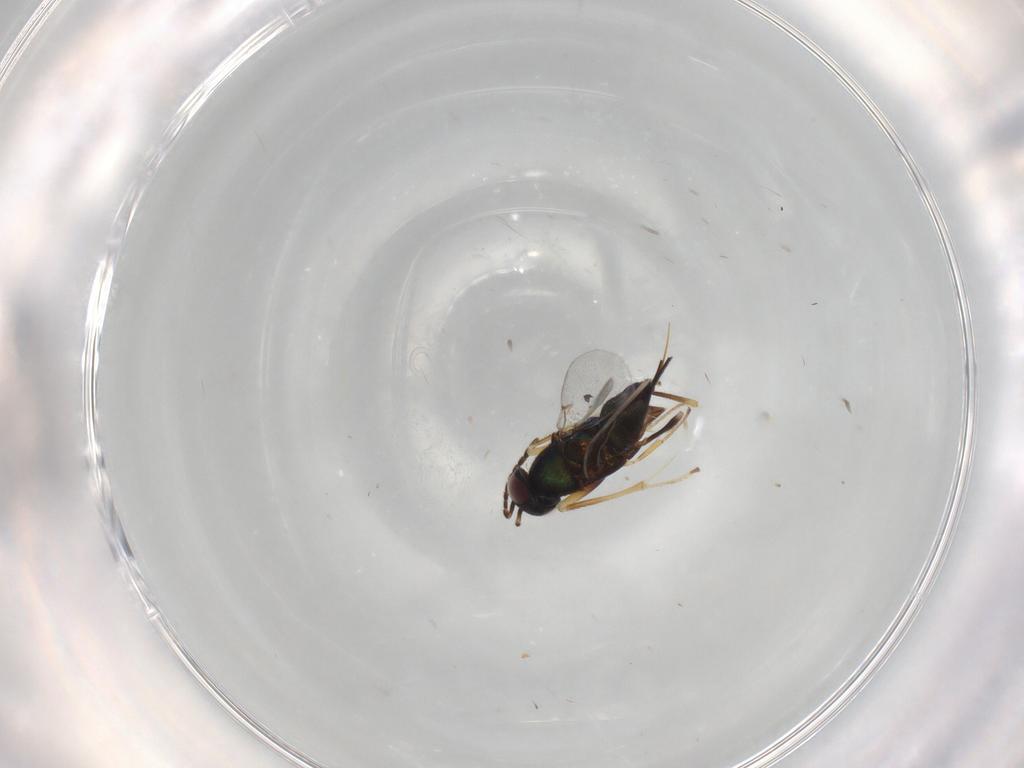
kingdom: Animalia
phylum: Arthropoda
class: Insecta
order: Hymenoptera
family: Encyrtidae
